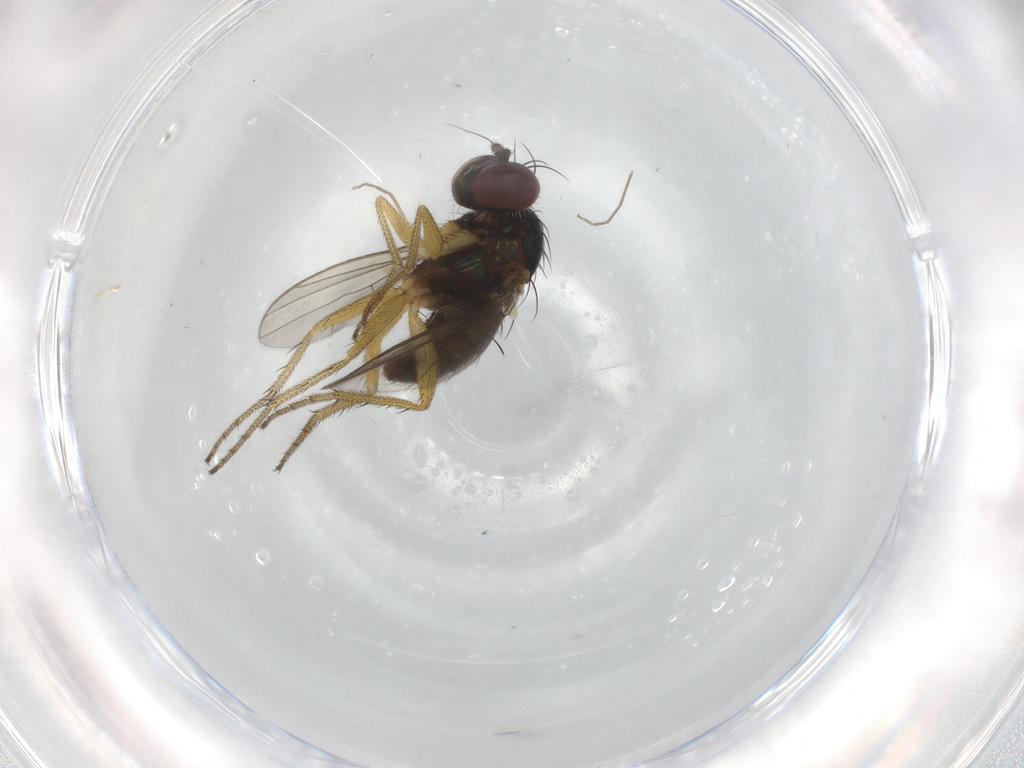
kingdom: Animalia
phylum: Arthropoda
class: Insecta
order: Diptera
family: Chironomidae
